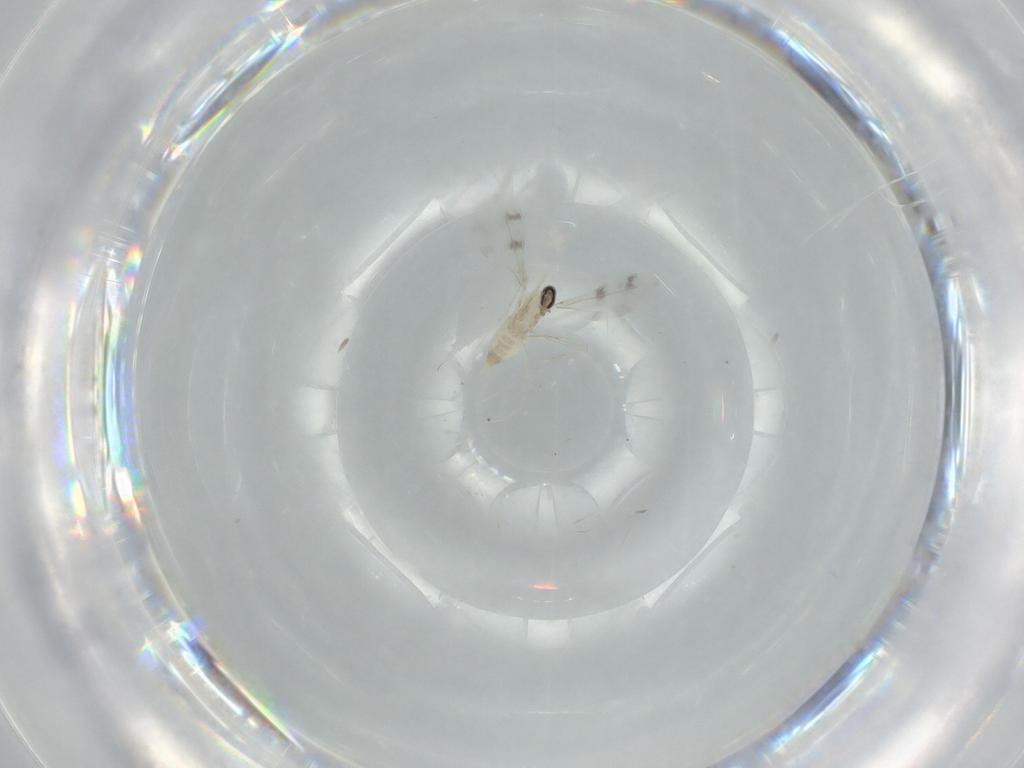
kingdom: Animalia
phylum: Arthropoda
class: Insecta
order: Diptera
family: Cecidomyiidae
